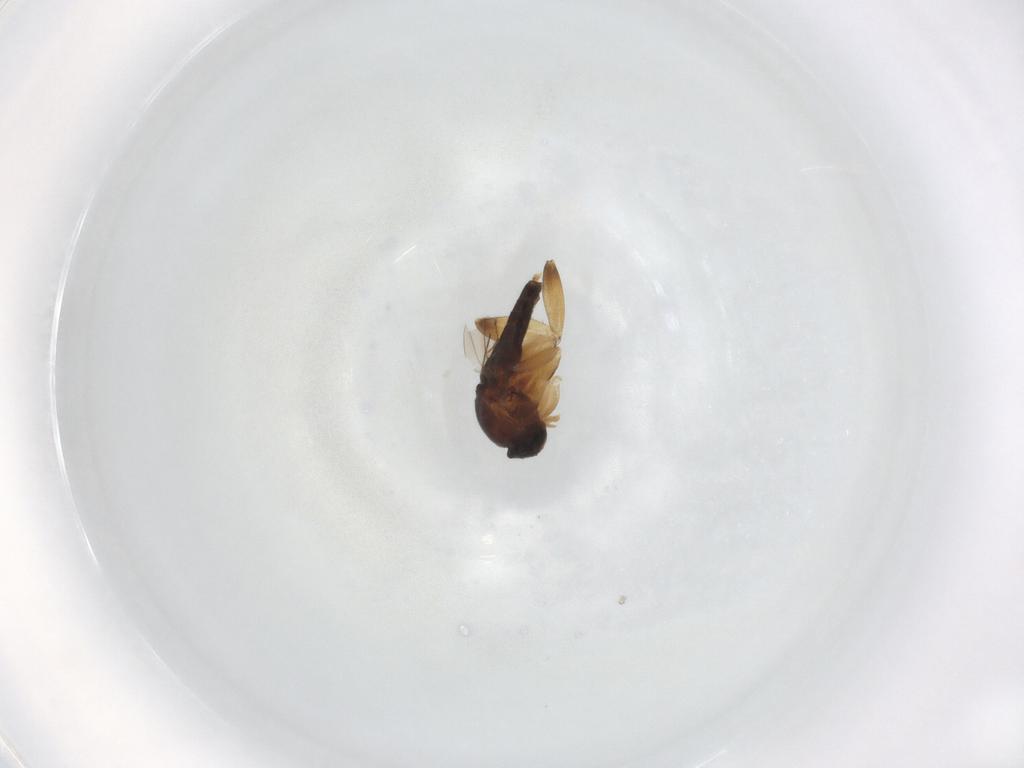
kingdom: Animalia
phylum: Arthropoda
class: Insecta
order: Diptera
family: Phoridae
